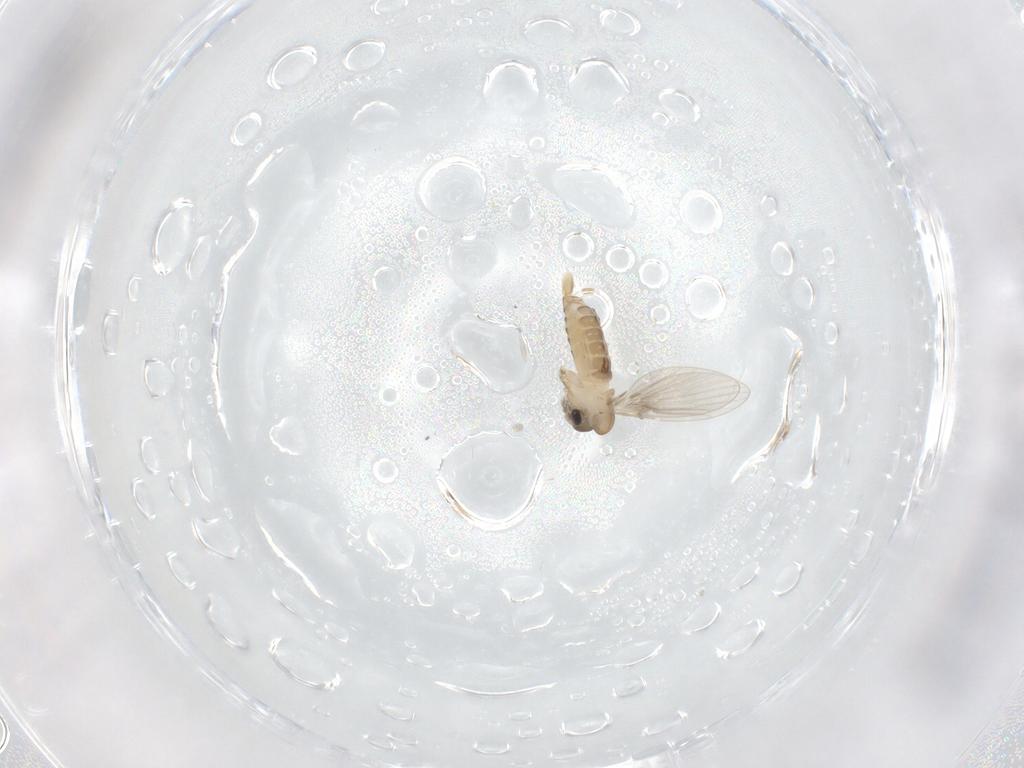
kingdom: Animalia
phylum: Arthropoda
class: Insecta
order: Diptera
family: Psychodidae
